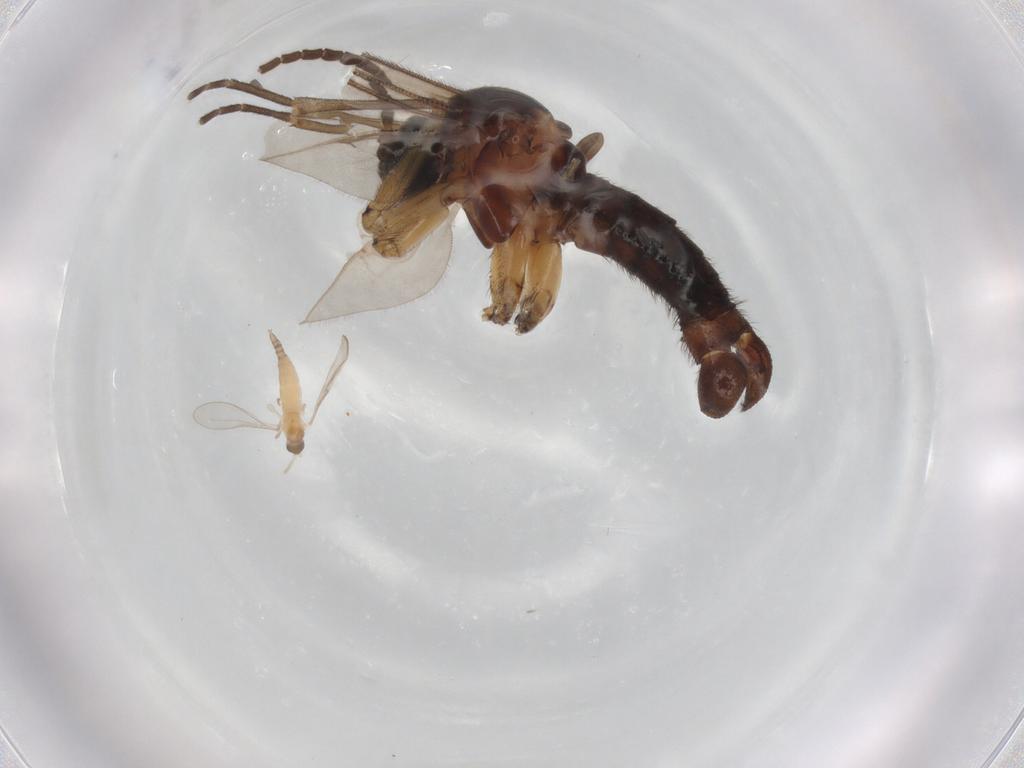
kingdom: Animalia
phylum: Arthropoda
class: Insecta
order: Diptera
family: Sciaridae
